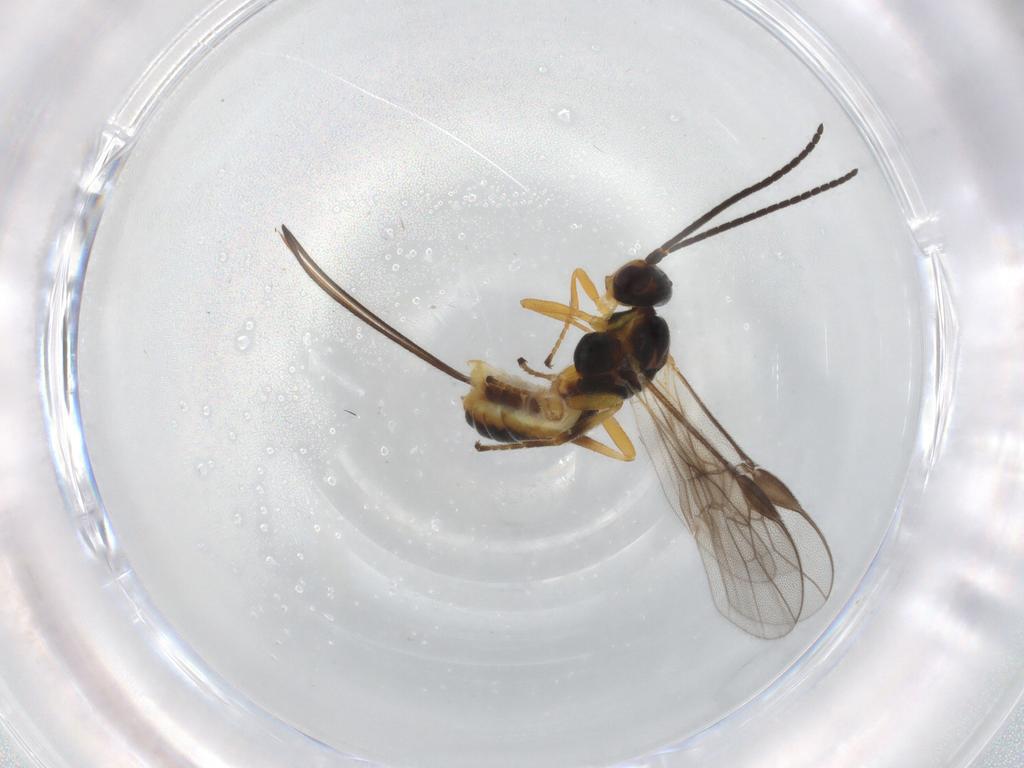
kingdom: Animalia
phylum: Arthropoda
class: Insecta
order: Hymenoptera
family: Braconidae
